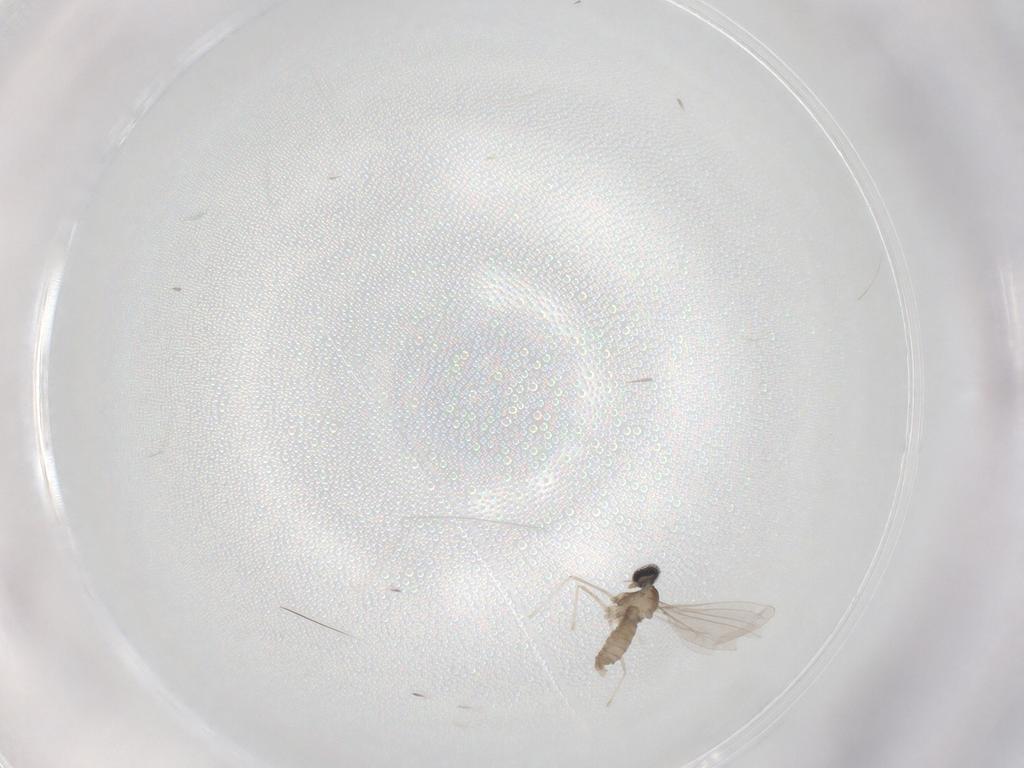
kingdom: Animalia
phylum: Arthropoda
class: Insecta
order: Diptera
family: Cecidomyiidae
